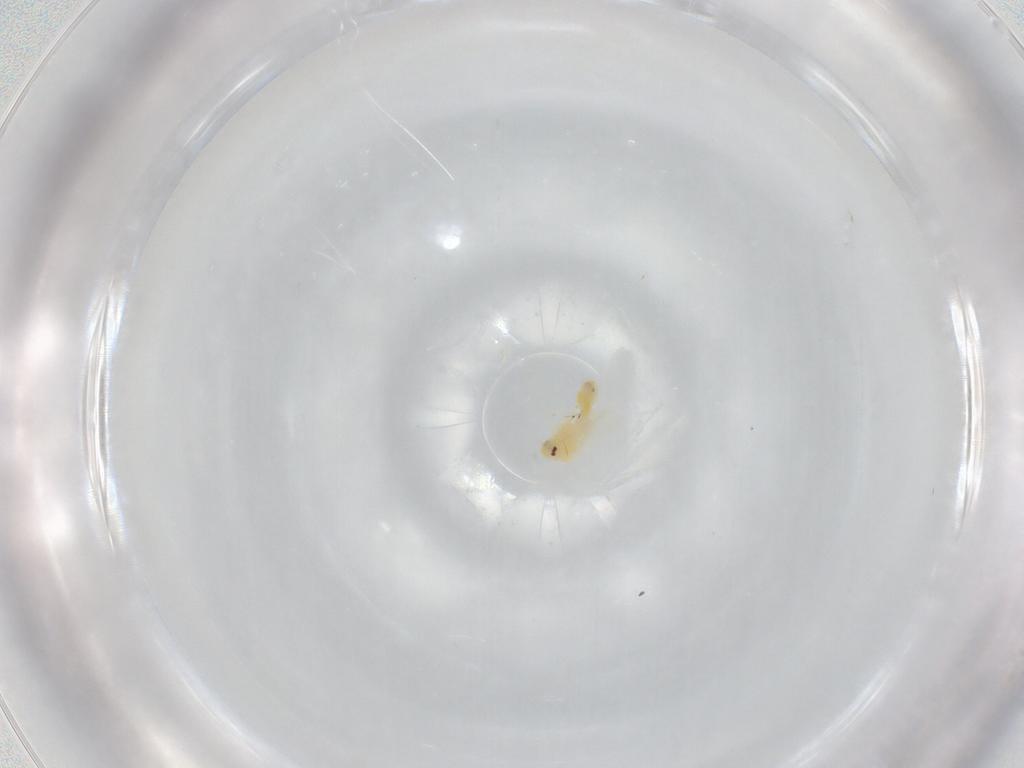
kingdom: Animalia
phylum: Arthropoda
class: Insecta
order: Hemiptera
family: Aleyrodidae
